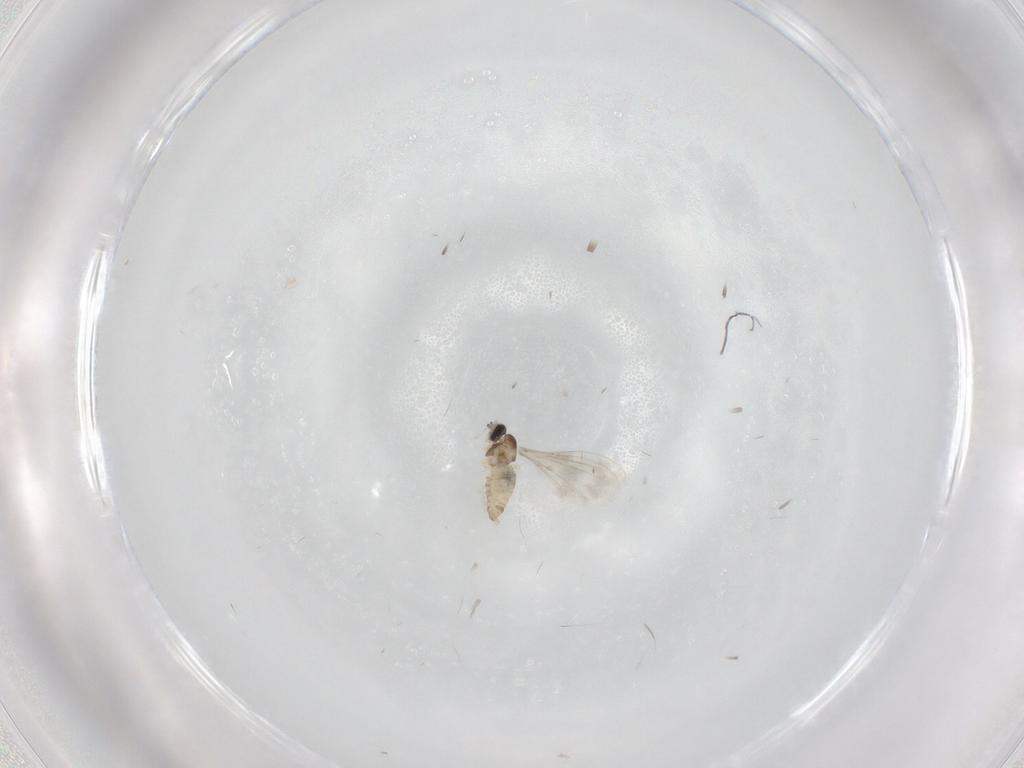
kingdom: Animalia
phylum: Arthropoda
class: Insecta
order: Diptera
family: Cecidomyiidae
